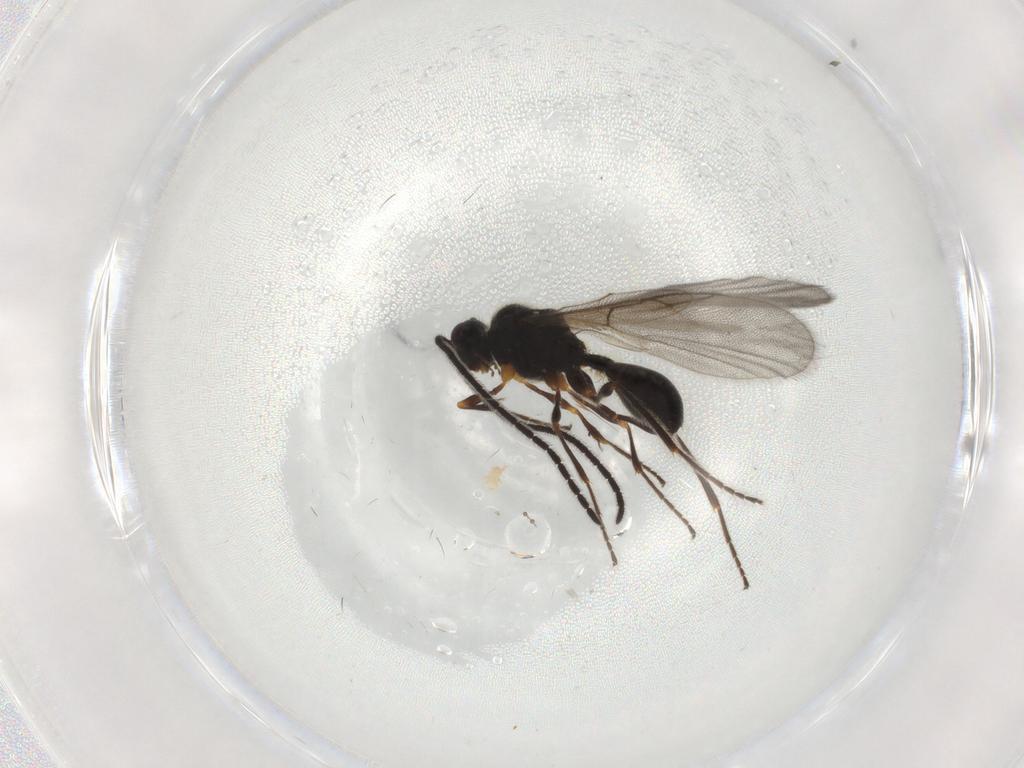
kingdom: Animalia
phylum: Arthropoda
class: Insecta
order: Hymenoptera
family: Diapriidae
